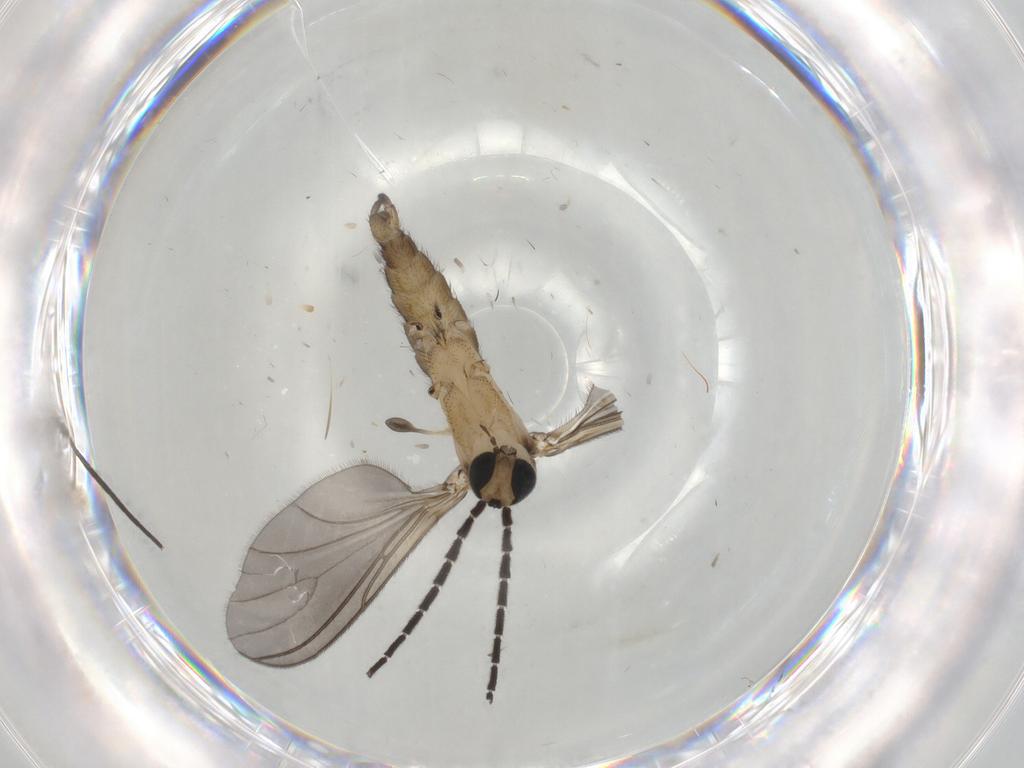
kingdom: Animalia
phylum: Arthropoda
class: Insecta
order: Diptera
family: Sciaridae
